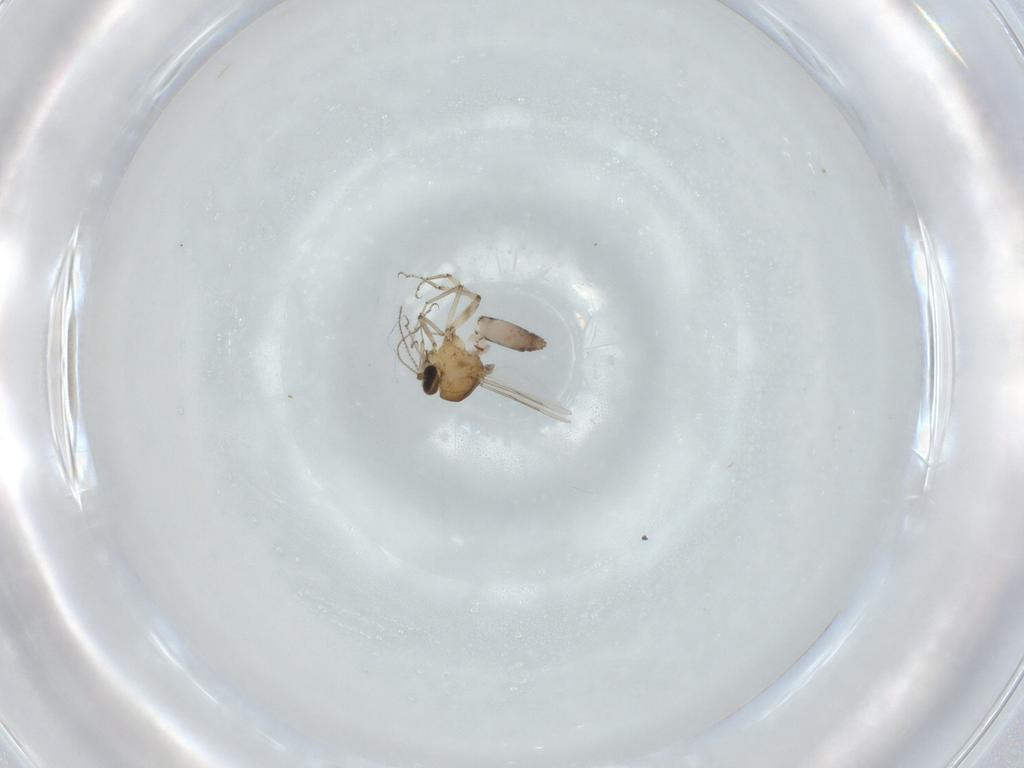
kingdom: Animalia
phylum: Arthropoda
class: Insecta
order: Diptera
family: Ceratopogonidae
